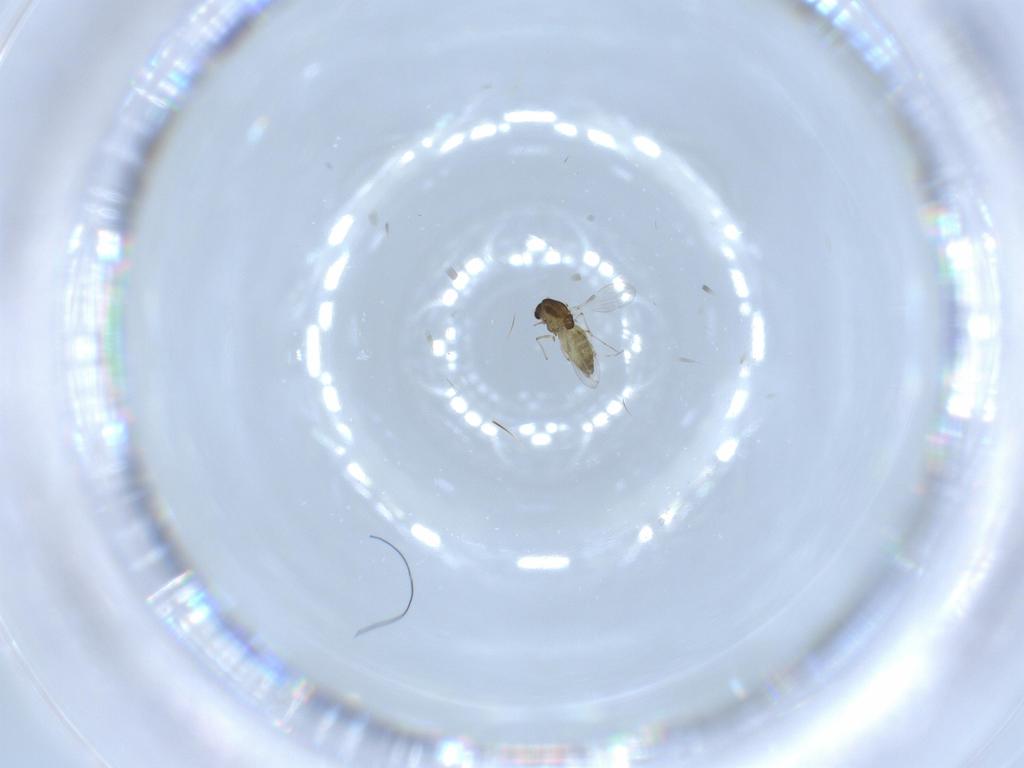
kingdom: Animalia
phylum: Arthropoda
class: Insecta
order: Diptera
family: Chironomidae
